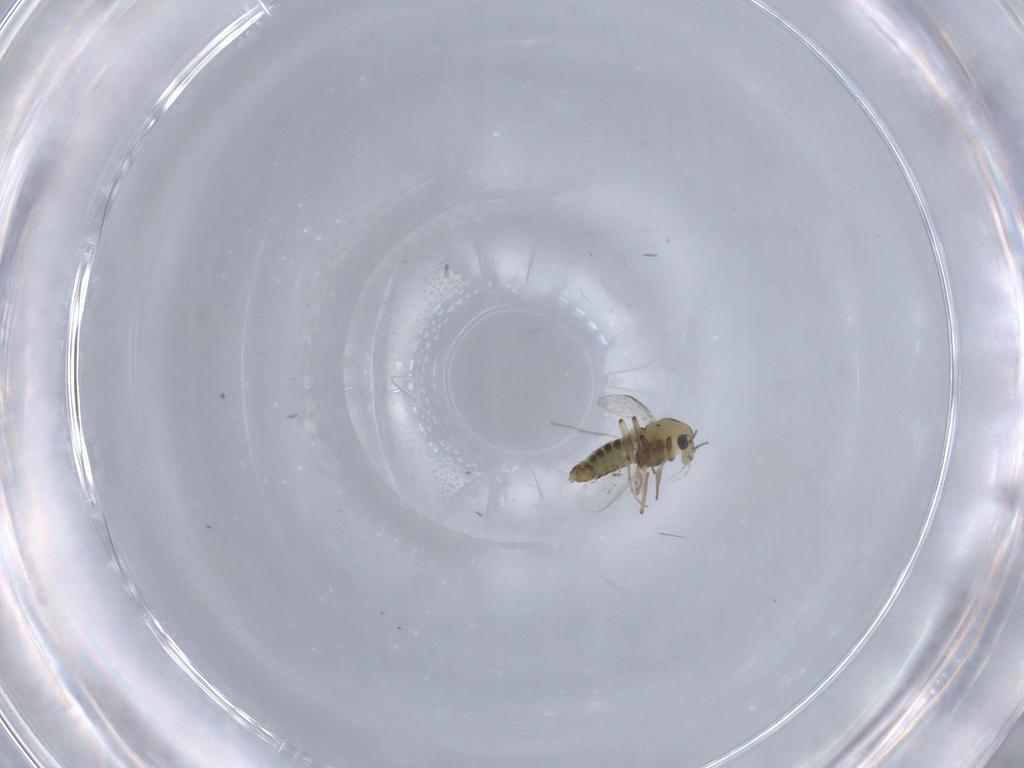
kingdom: Animalia
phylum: Arthropoda
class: Insecta
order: Diptera
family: Chironomidae
